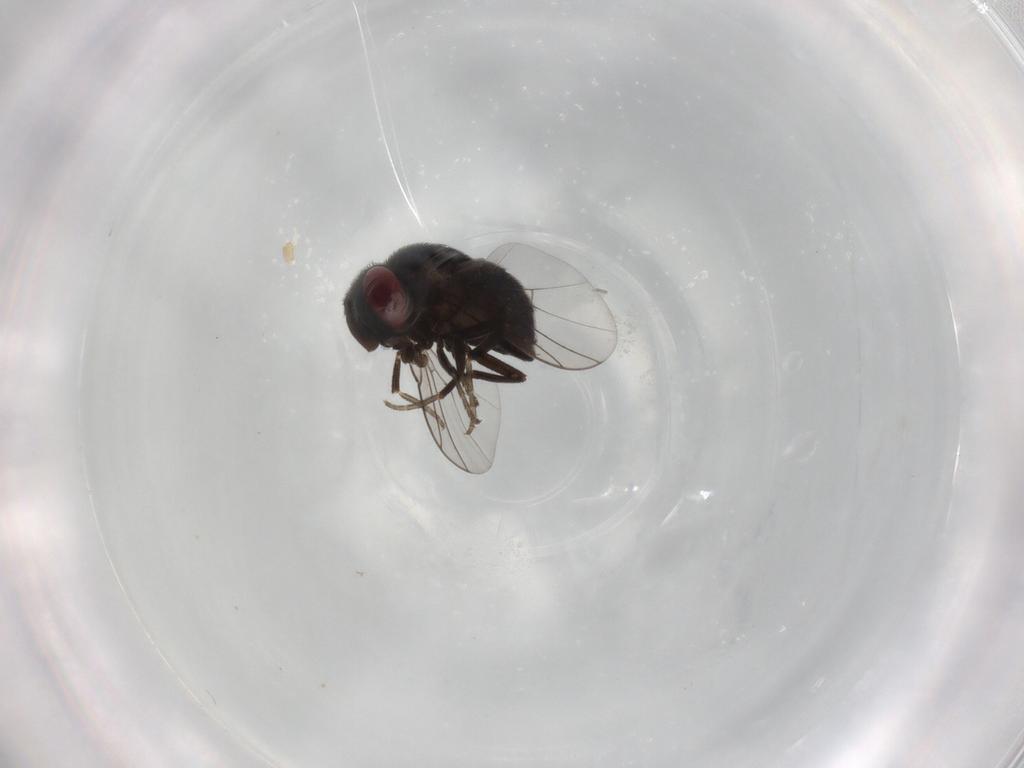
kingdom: Animalia
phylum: Arthropoda
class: Insecta
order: Diptera
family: Cryptochetidae
